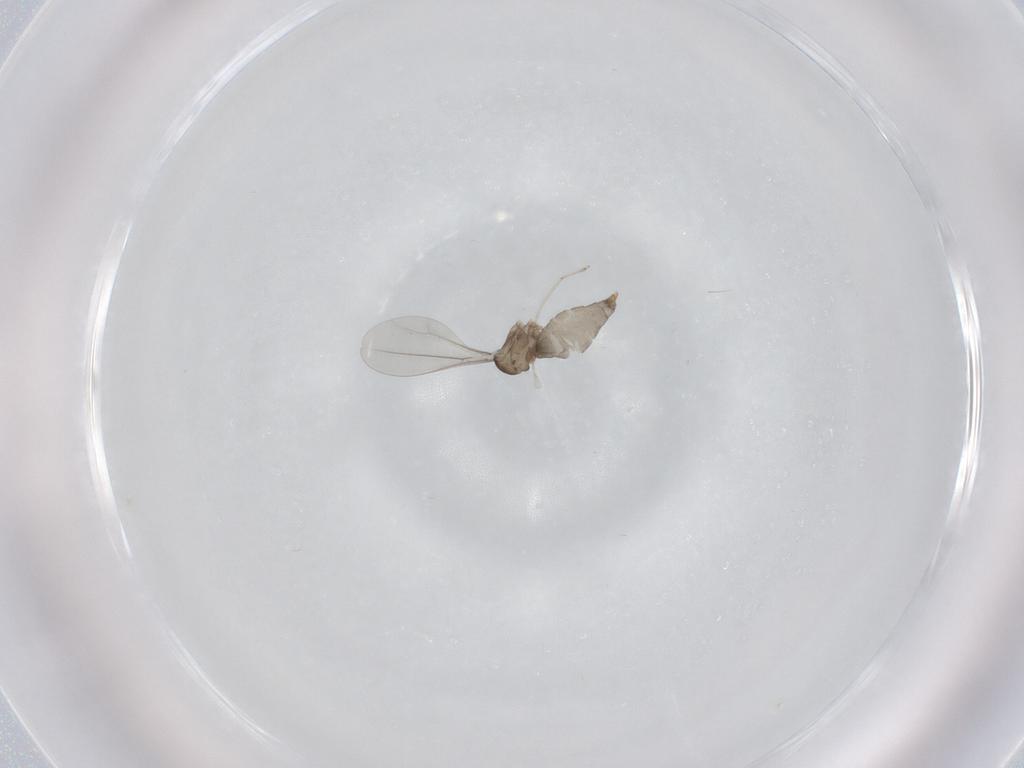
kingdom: Animalia
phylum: Arthropoda
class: Insecta
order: Diptera
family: Cecidomyiidae
